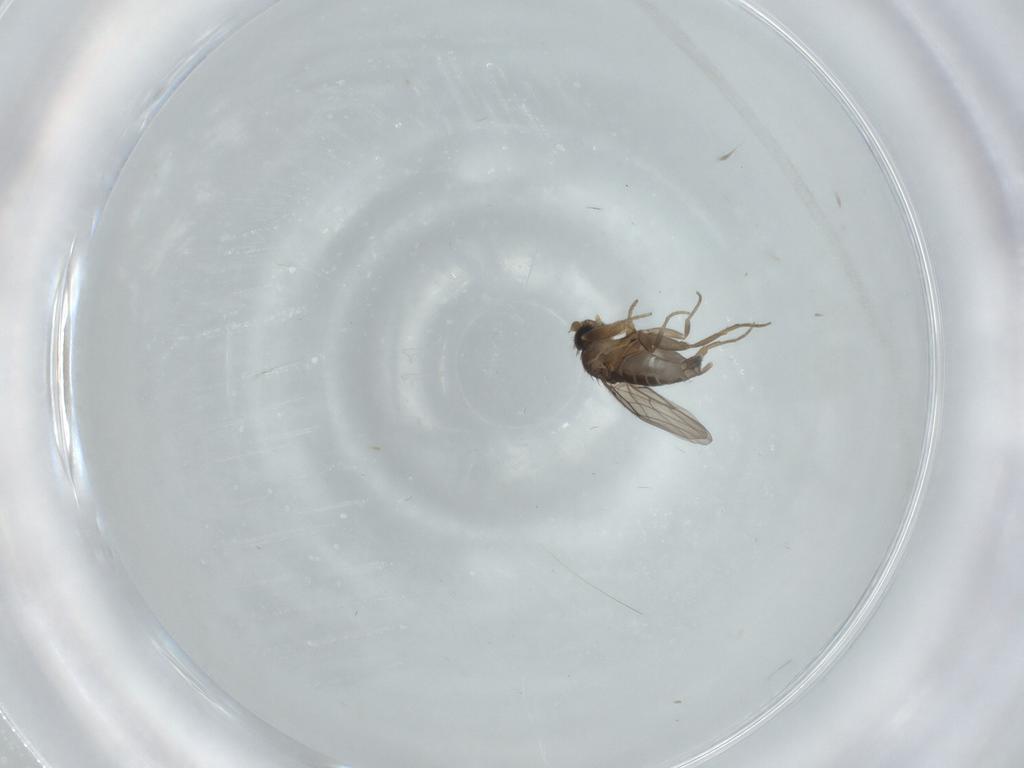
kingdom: Animalia
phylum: Arthropoda
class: Insecta
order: Diptera
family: Phoridae
